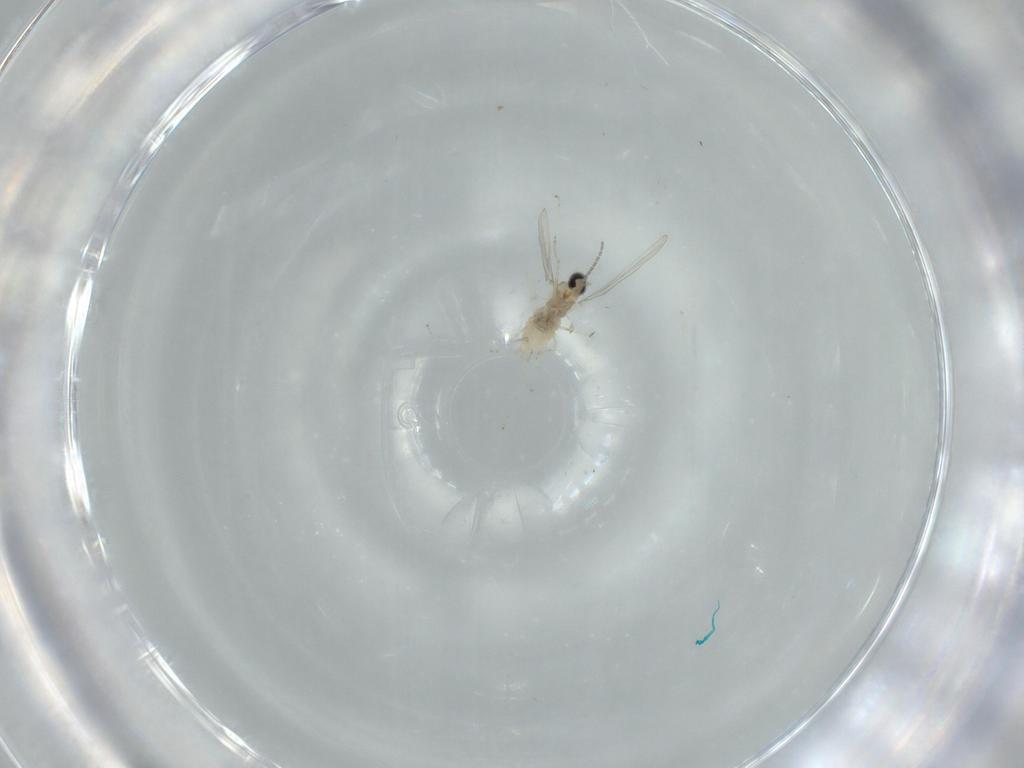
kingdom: Animalia
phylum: Arthropoda
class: Insecta
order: Diptera
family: Cecidomyiidae
